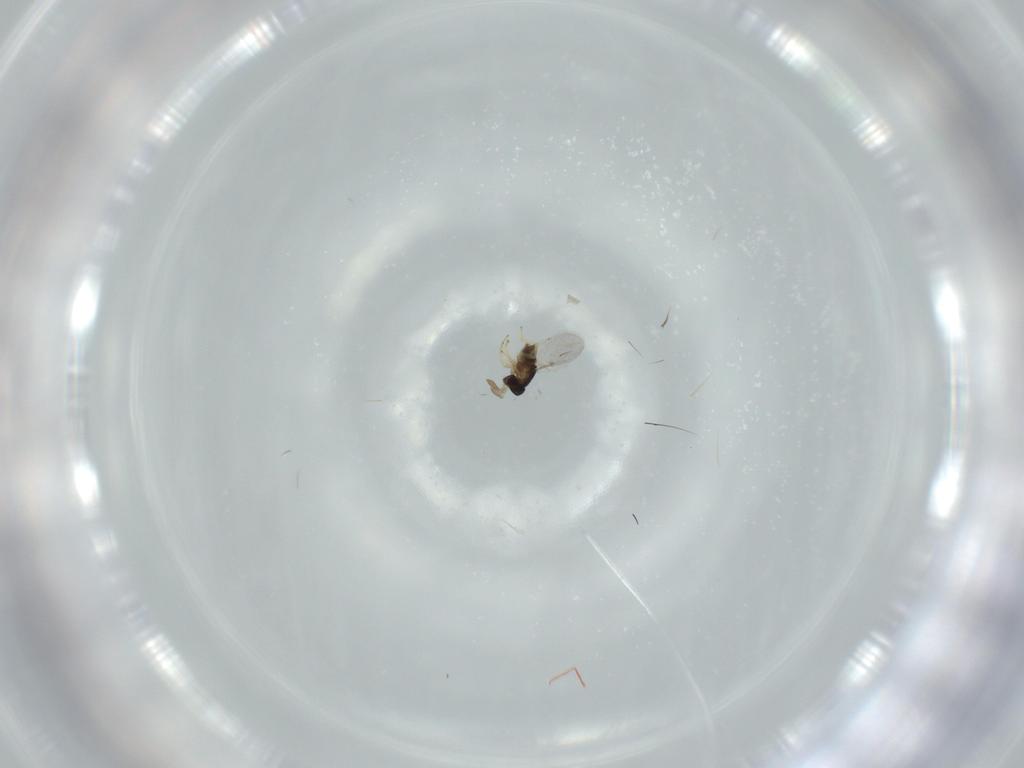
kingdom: Animalia
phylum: Arthropoda
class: Insecta
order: Hymenoptera
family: Encyrtidae
